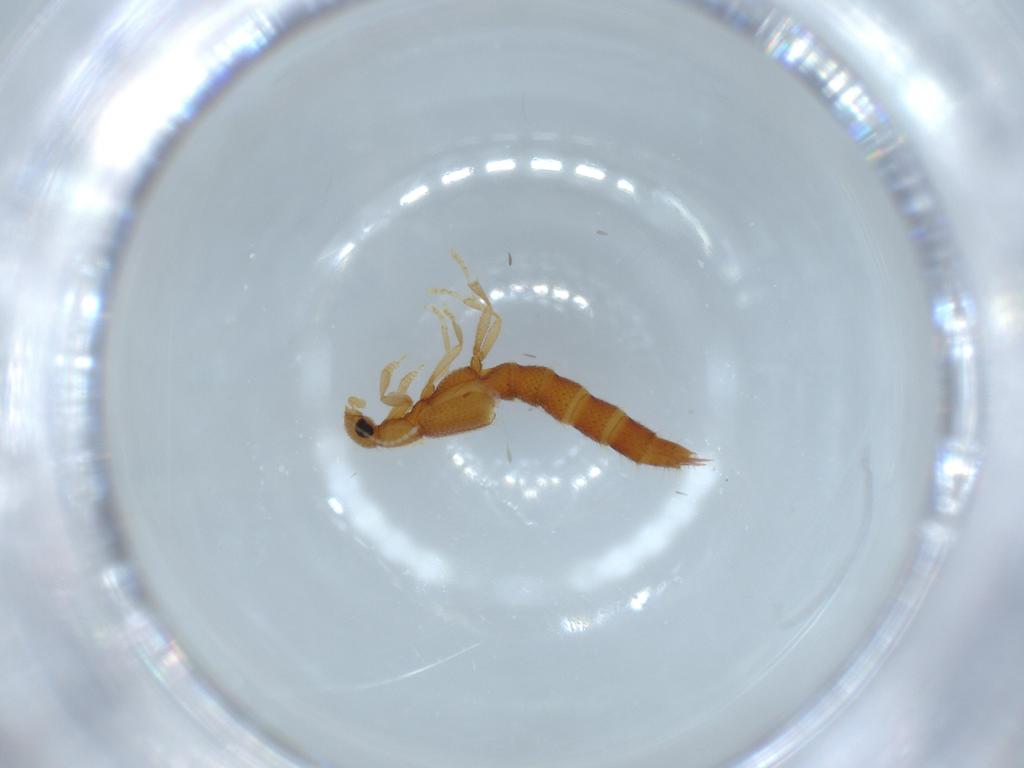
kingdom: Animalia
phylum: Arthropoda
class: Insecta
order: Coleoptera
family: Staphylinidae
